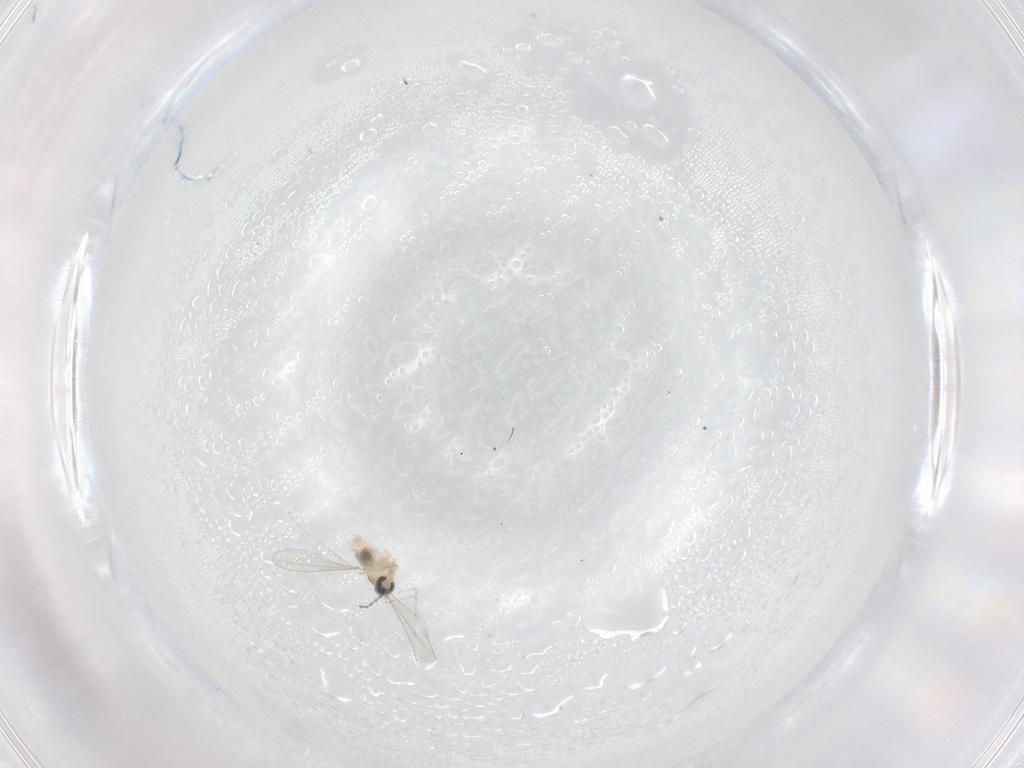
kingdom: Animalia
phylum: Arthropoda
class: Insecta
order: Diptera
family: Cecidomyiidae
